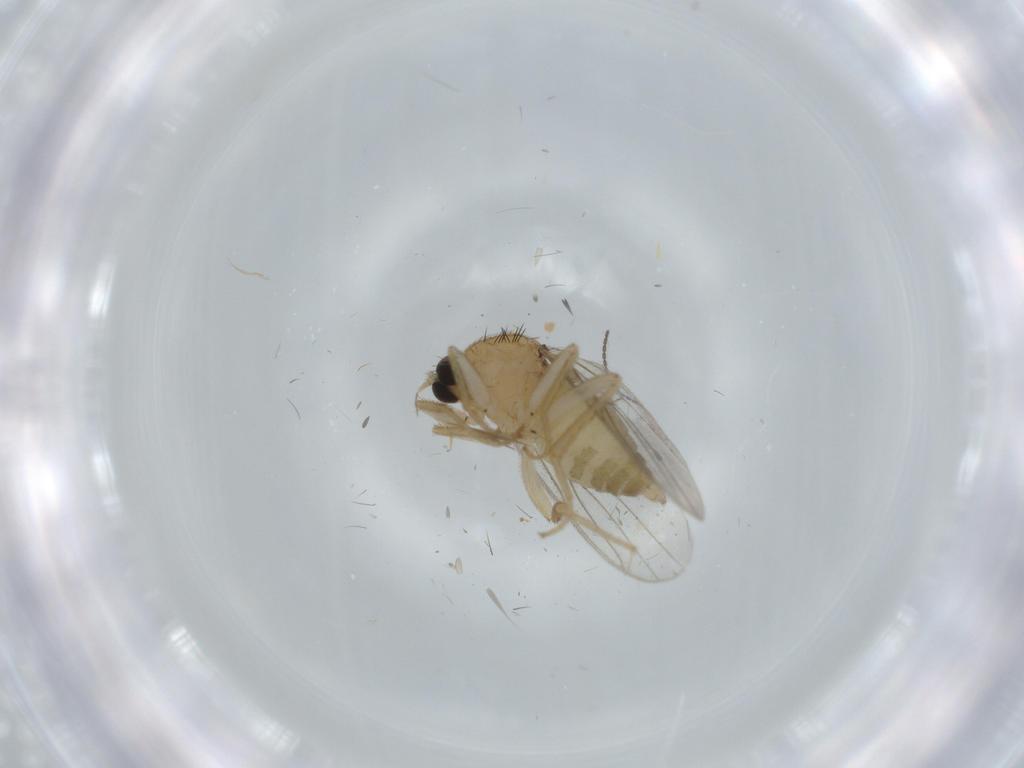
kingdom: Animalia
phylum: Arthropoda
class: Insecta
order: Diptera
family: Hybotidae
